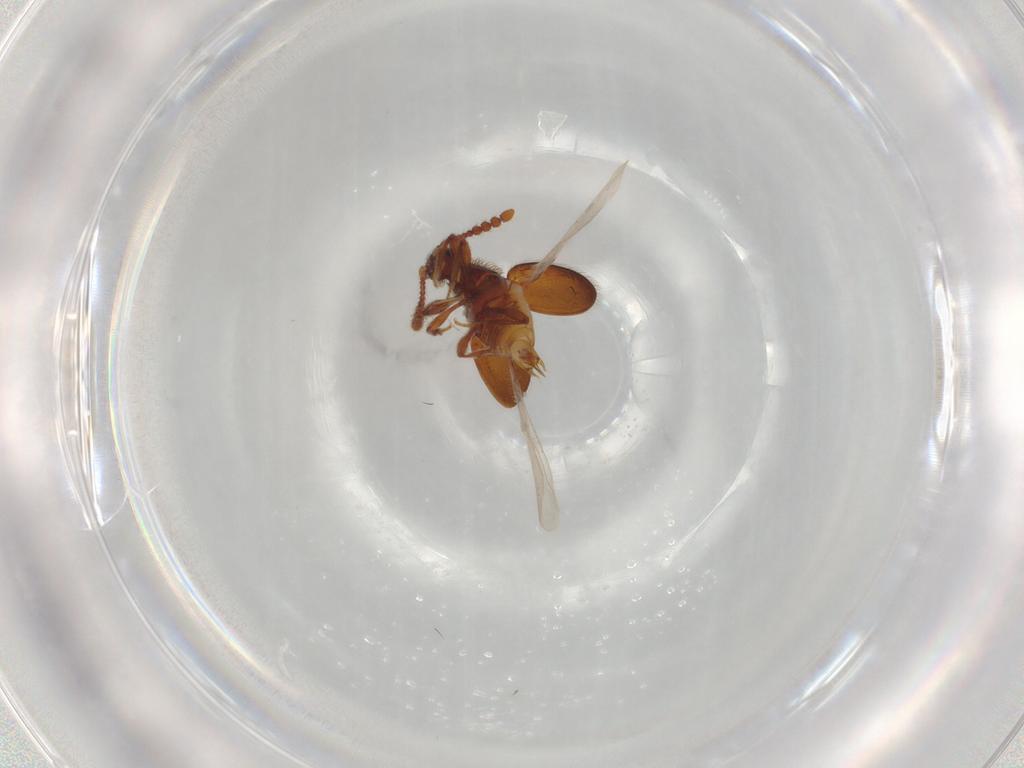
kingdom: Animalia
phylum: Arthropoda
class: Insecta
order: Coleoptera
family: Staphylinidae
